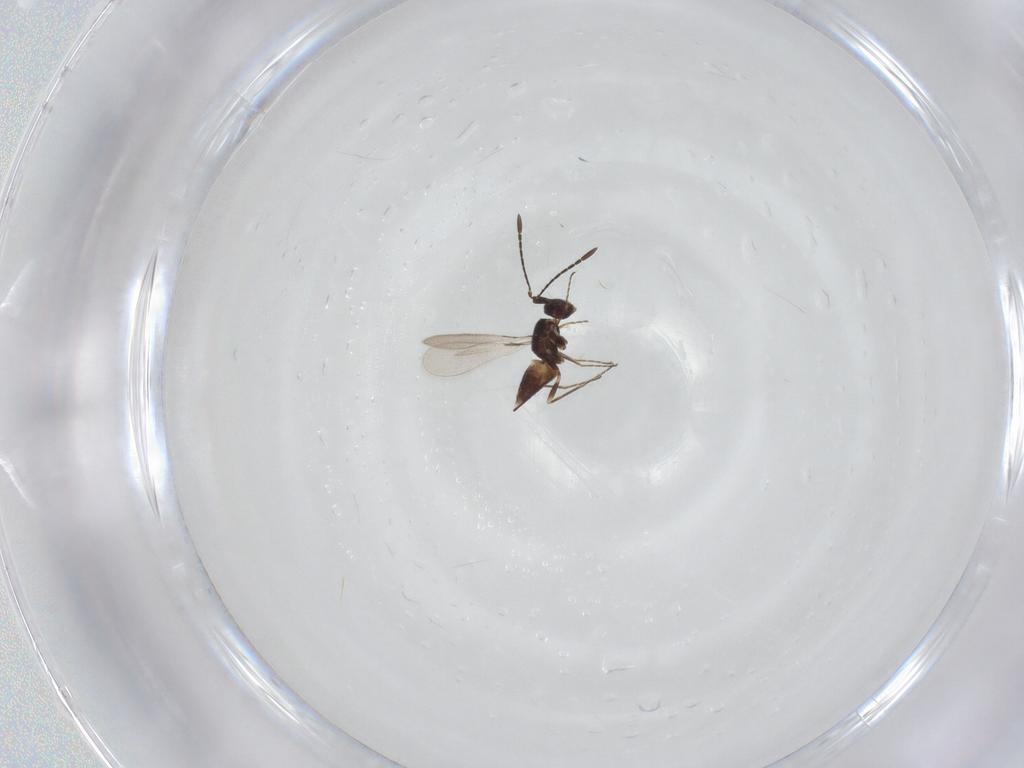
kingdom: Animalia
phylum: Arthropoda
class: Insecta
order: Hymenoptera
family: Mymaridae
